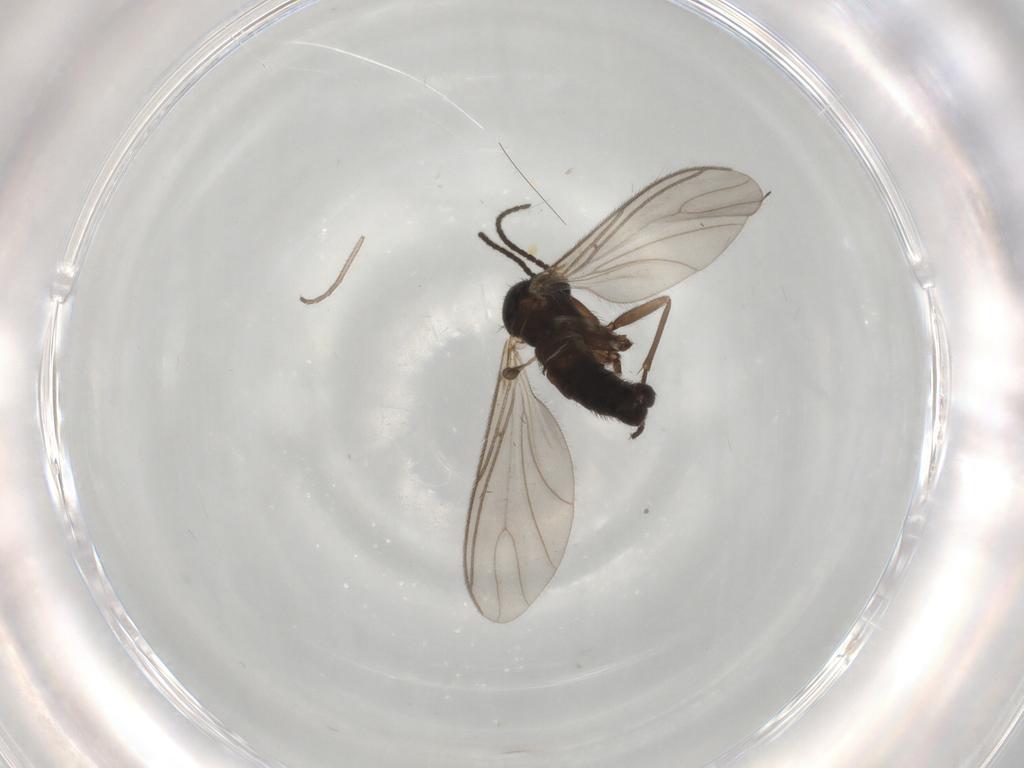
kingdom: Animalia
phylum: Arthropoda
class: Insecta
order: Diptera
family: Sciaridae
